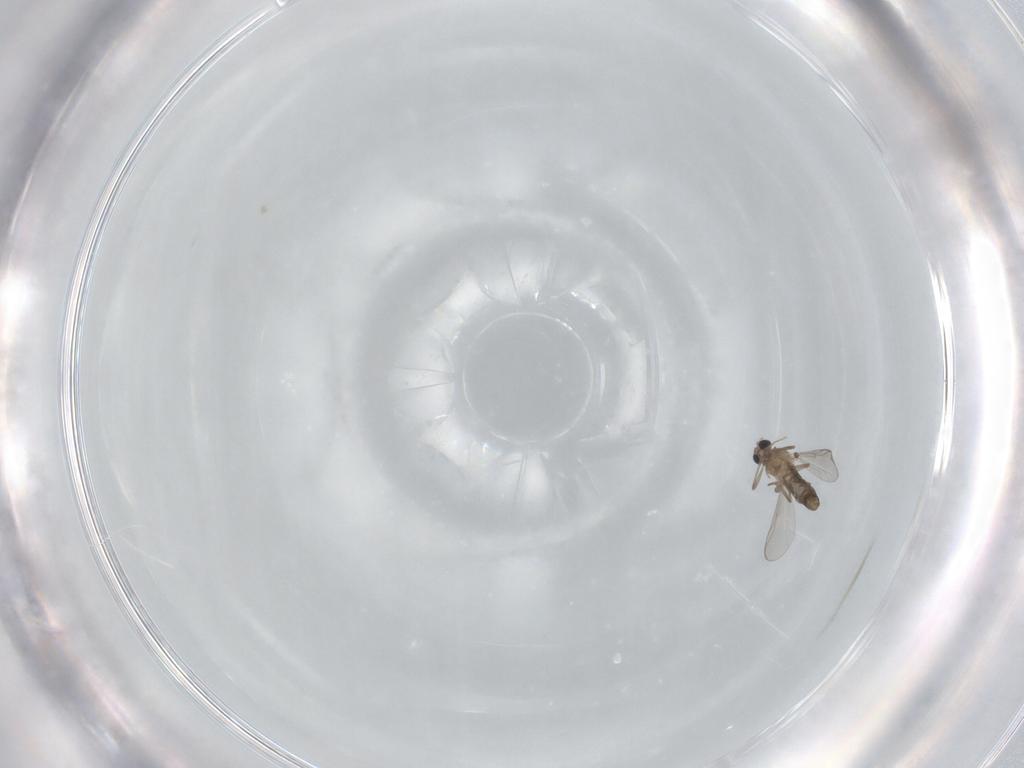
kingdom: Animalia
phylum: Arthropoda
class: Insecta
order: Diptera
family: Chironomidae
